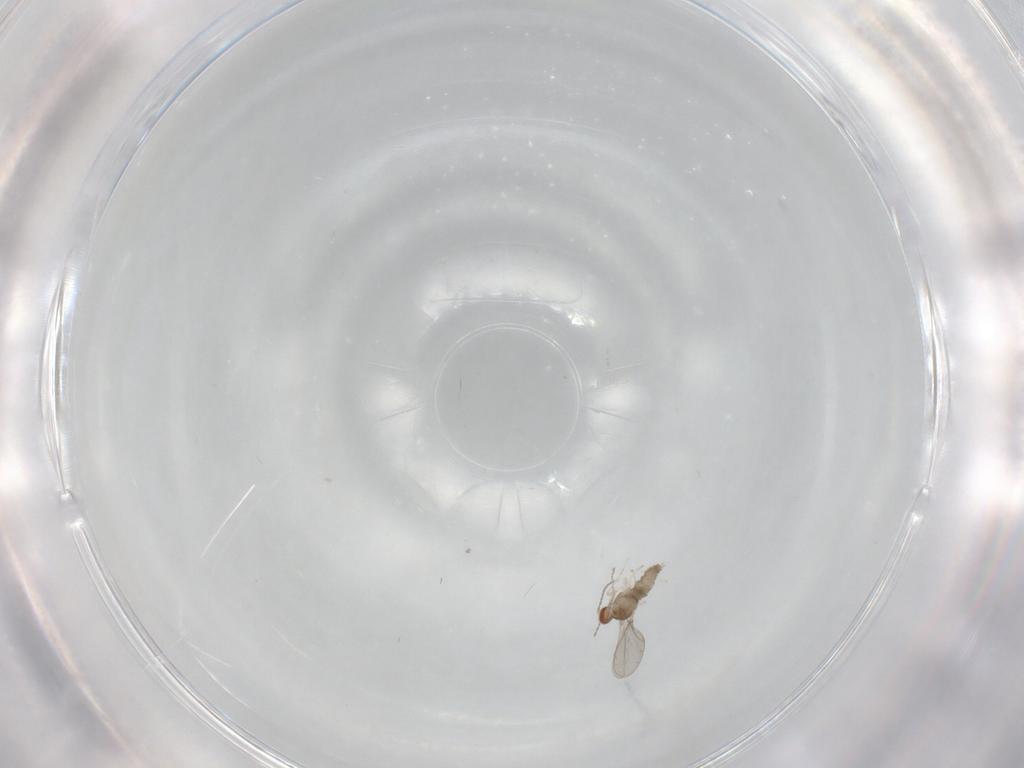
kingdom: Animalia
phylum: Arthropoda
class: Insecta
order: Diptera
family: Cecidomyiidae
